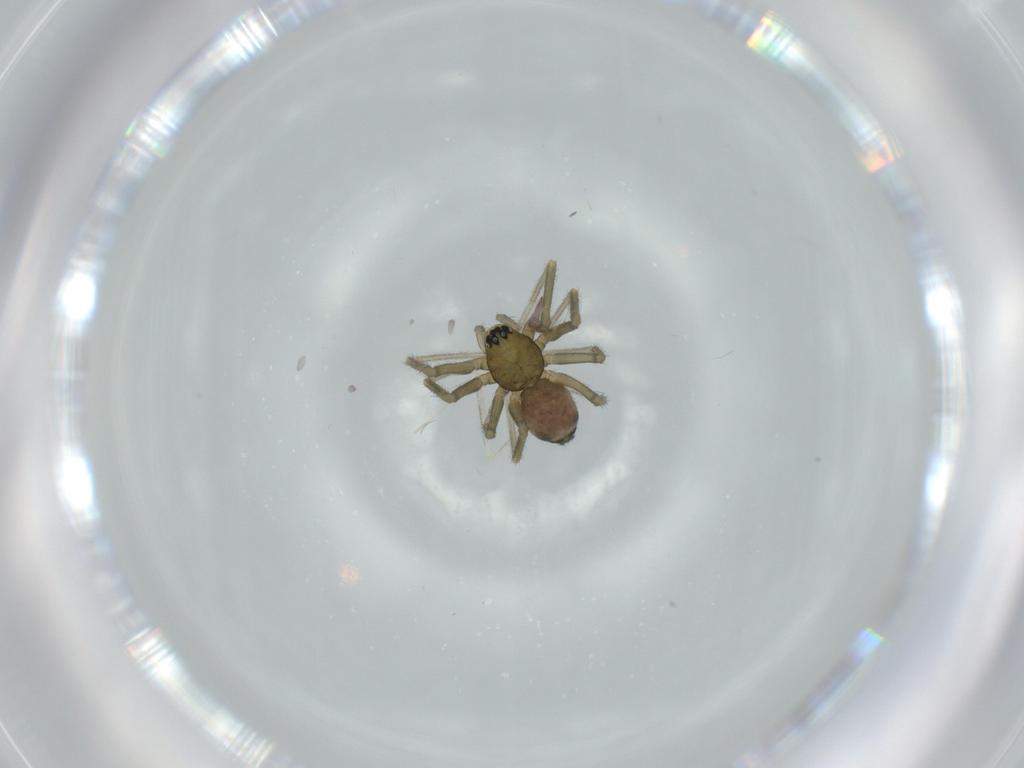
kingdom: Animalia
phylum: Arthropoda
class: Arachnida
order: Araneae
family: Linyphiidae
